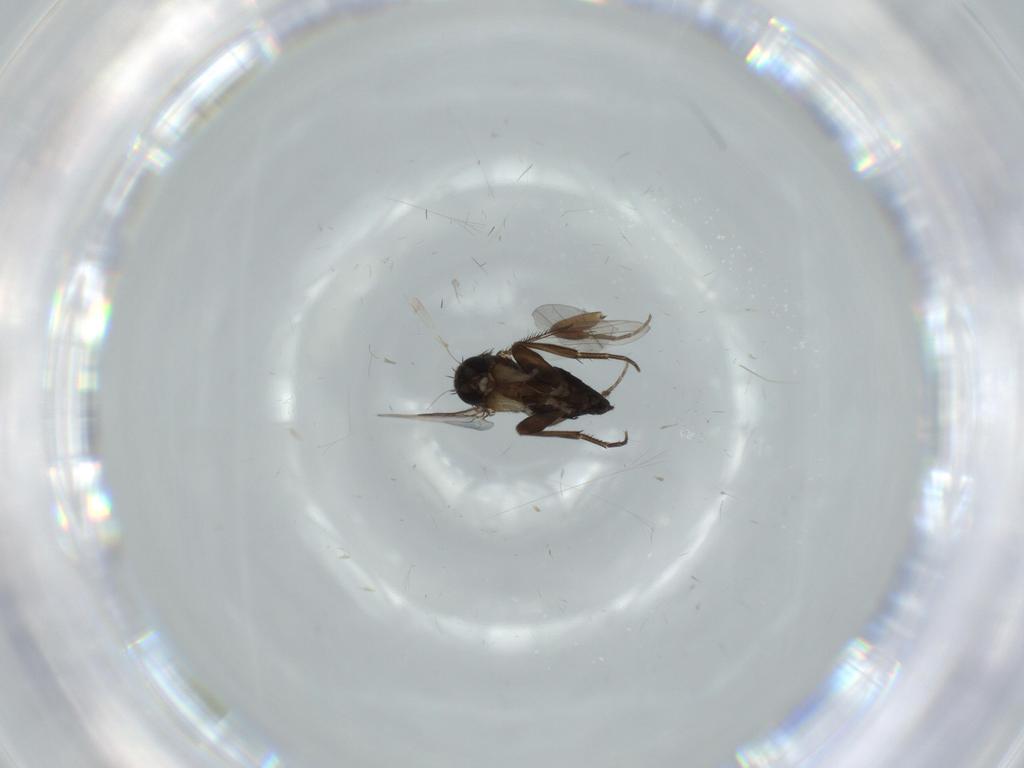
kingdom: Animalia
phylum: Arthropoda
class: Insecta
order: Diptera
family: Phoridae
